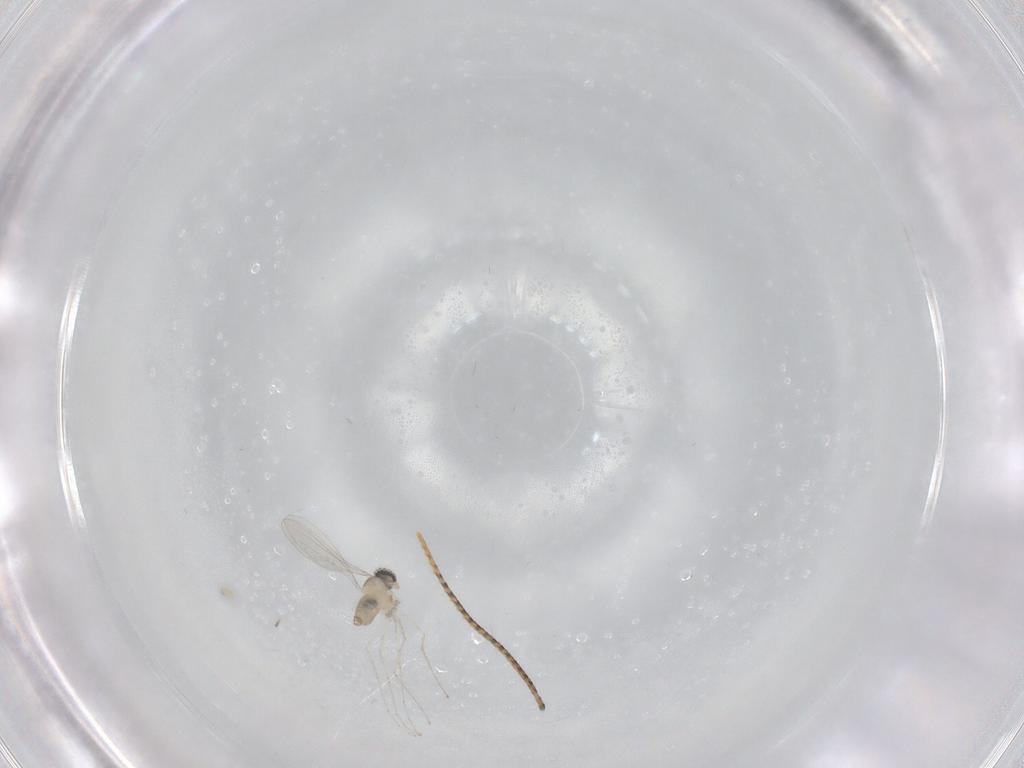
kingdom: Animalia
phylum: Arthropoda
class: Insecta
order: Diptera
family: Cecidomyiidae
